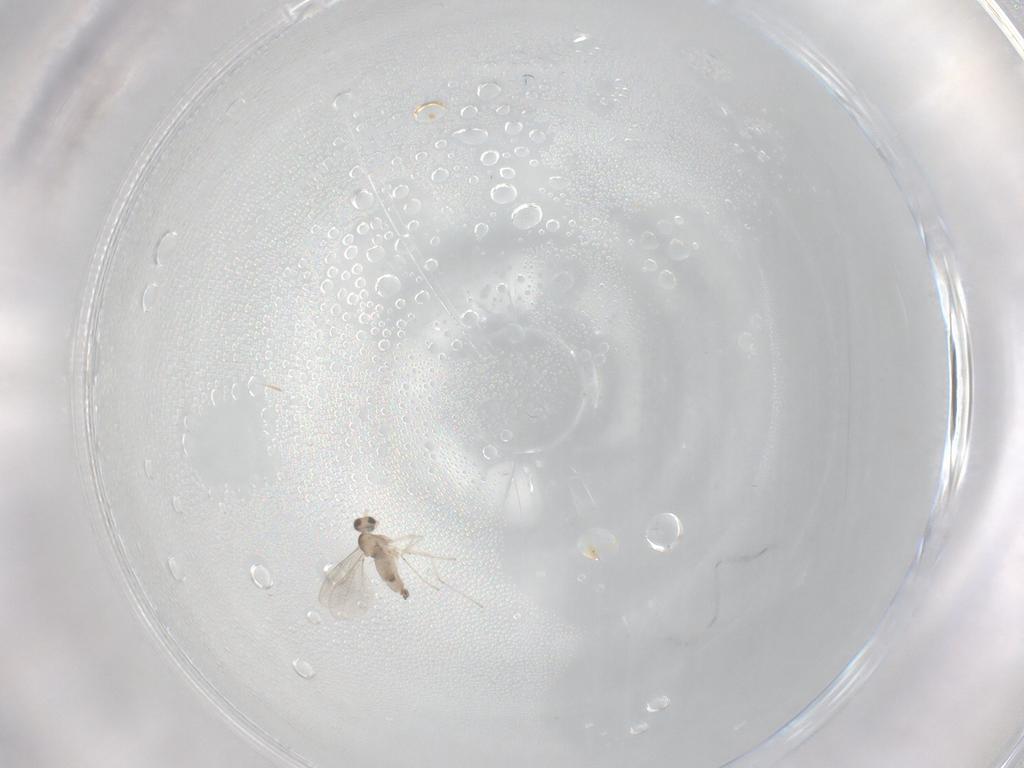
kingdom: Animalia
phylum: Arthropoda
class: Insecta
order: Diptera
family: Cecidomyiidae
